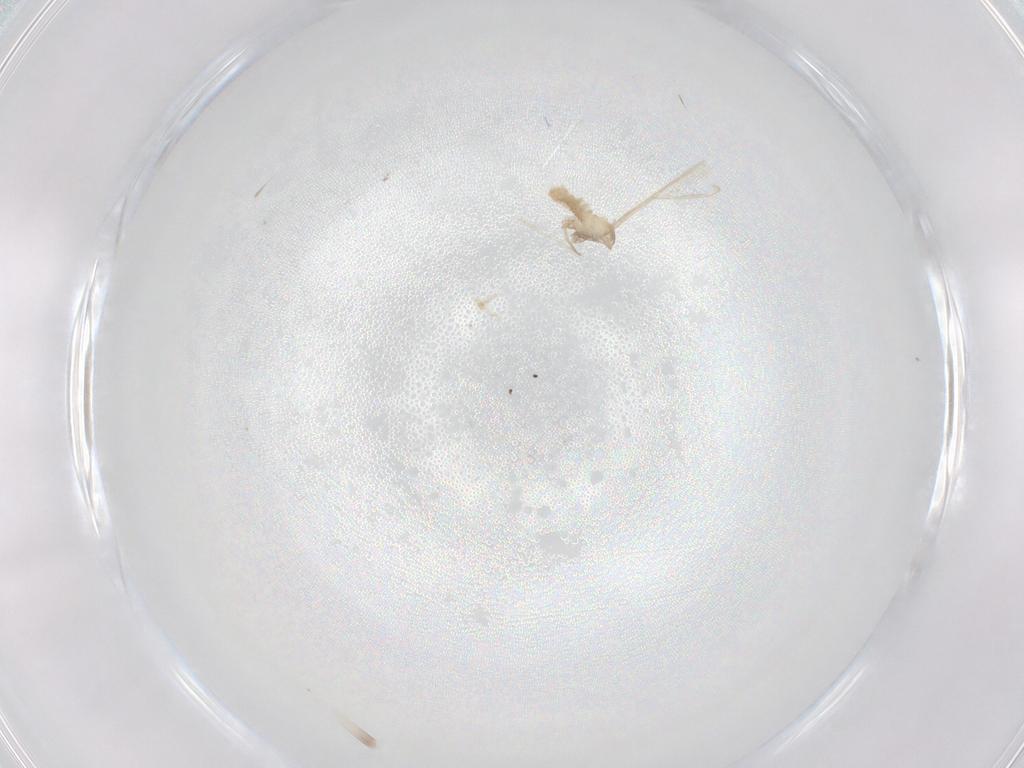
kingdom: Animalia
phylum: Arthropoda
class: Insecta
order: Diptera
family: Cecidomyiidae
